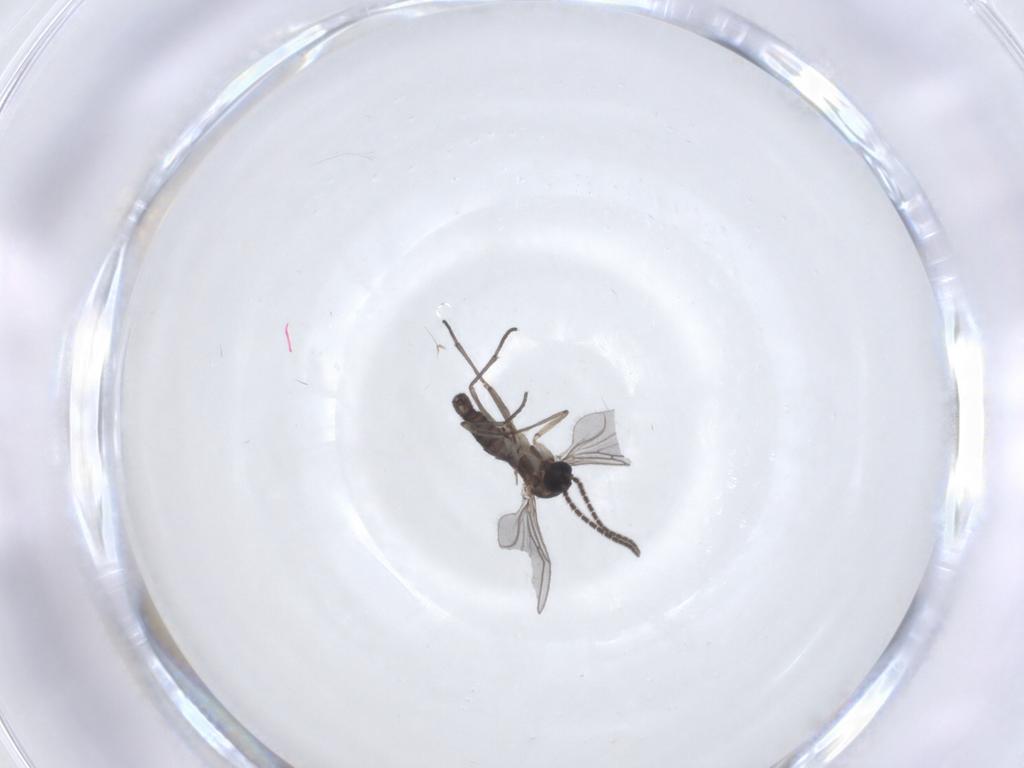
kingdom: Animalia
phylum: Arthropoda
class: Insecta
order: Diptera
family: Sciaridae
